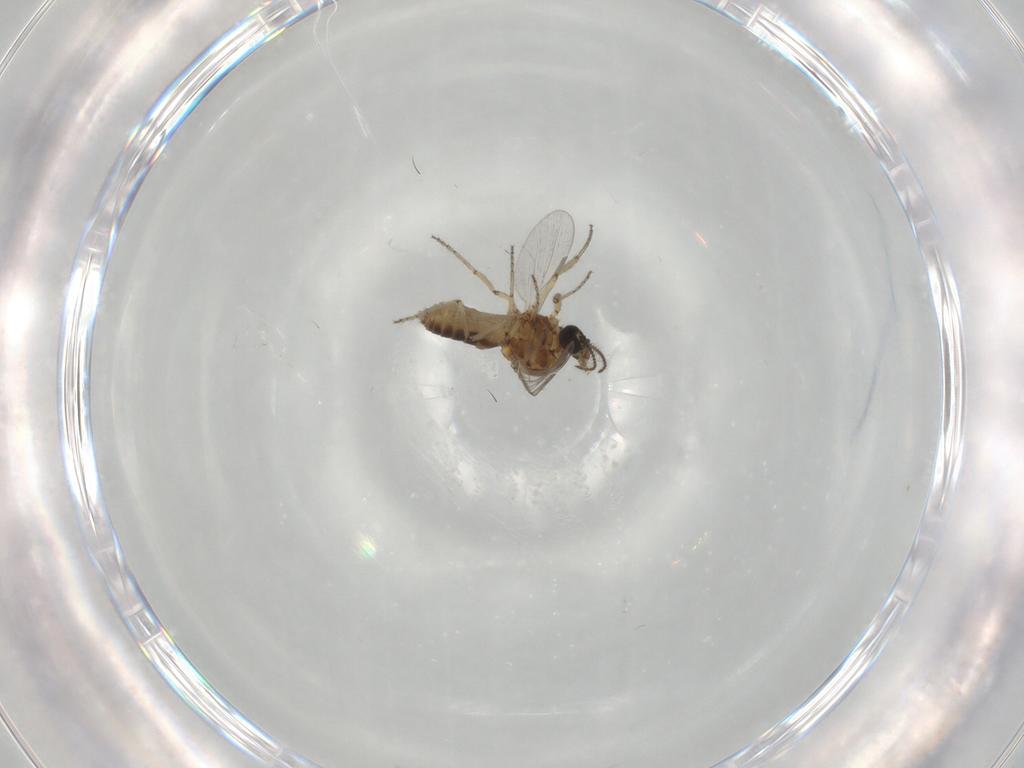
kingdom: Animalia
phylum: Arthropoda
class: Insecta
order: Diptera
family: Ceratopogonidae
